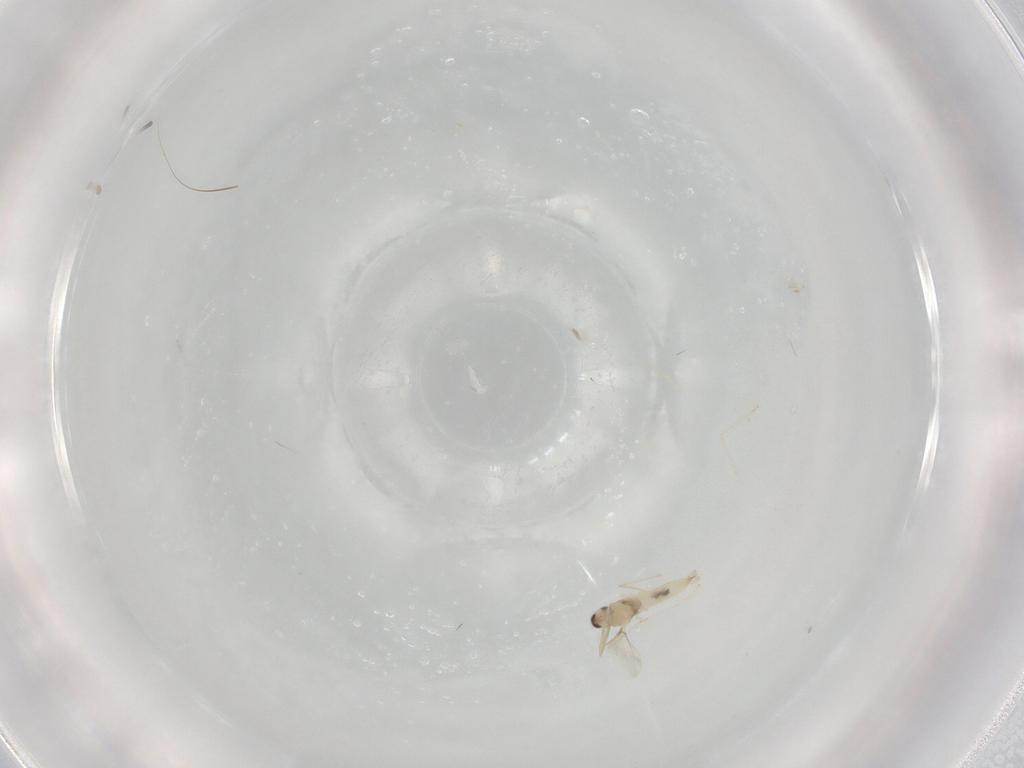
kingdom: Animalia
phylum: Arthropoda
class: Insecta
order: Diptera
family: Cecidomyiidae
